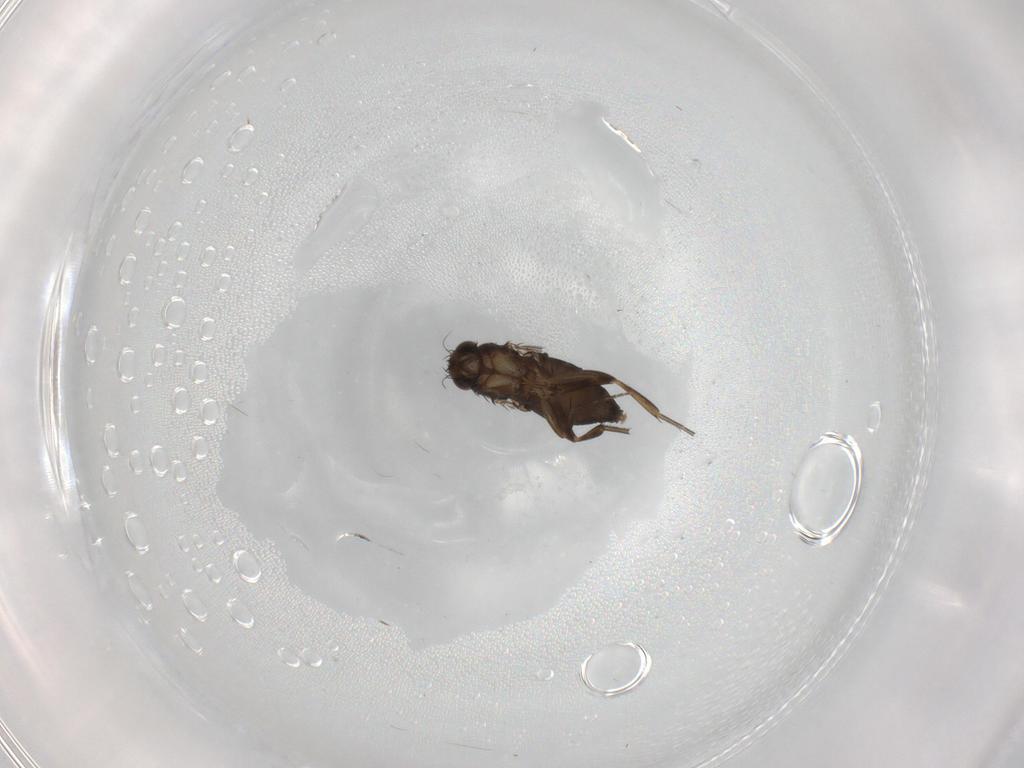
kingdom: Animalia
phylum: Arthropoda
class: Insecta
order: Diptera
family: Phoridae
